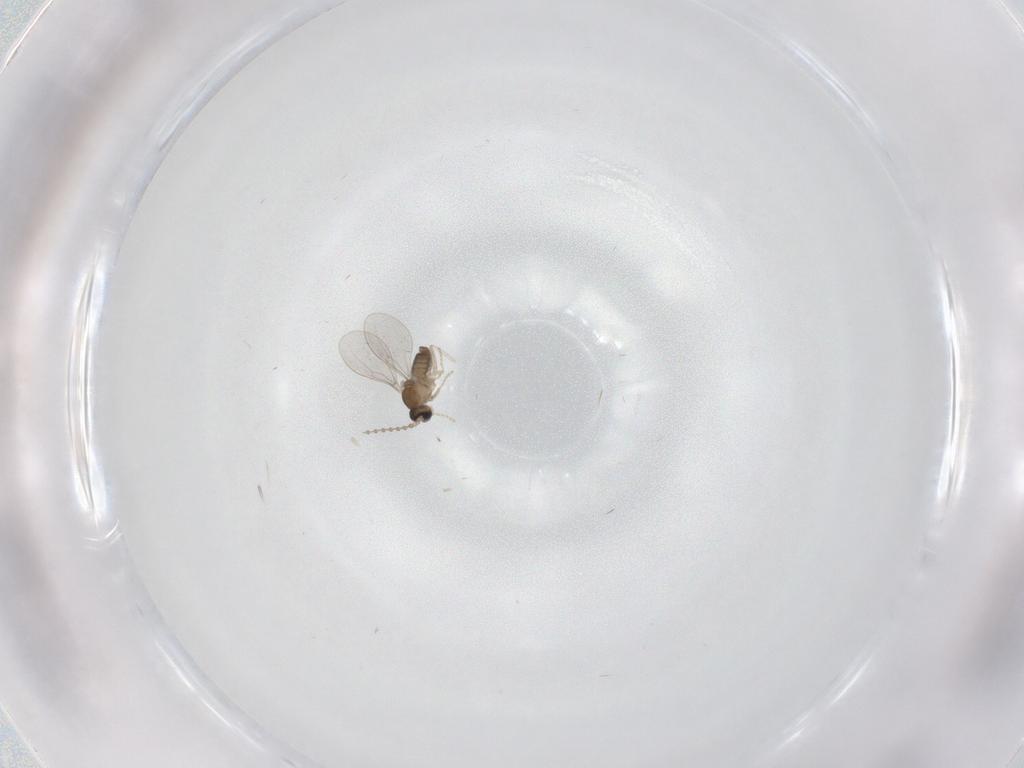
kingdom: Animalia
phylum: Arthropoda
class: Insecta
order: Diptera
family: Cecidomyiidae
